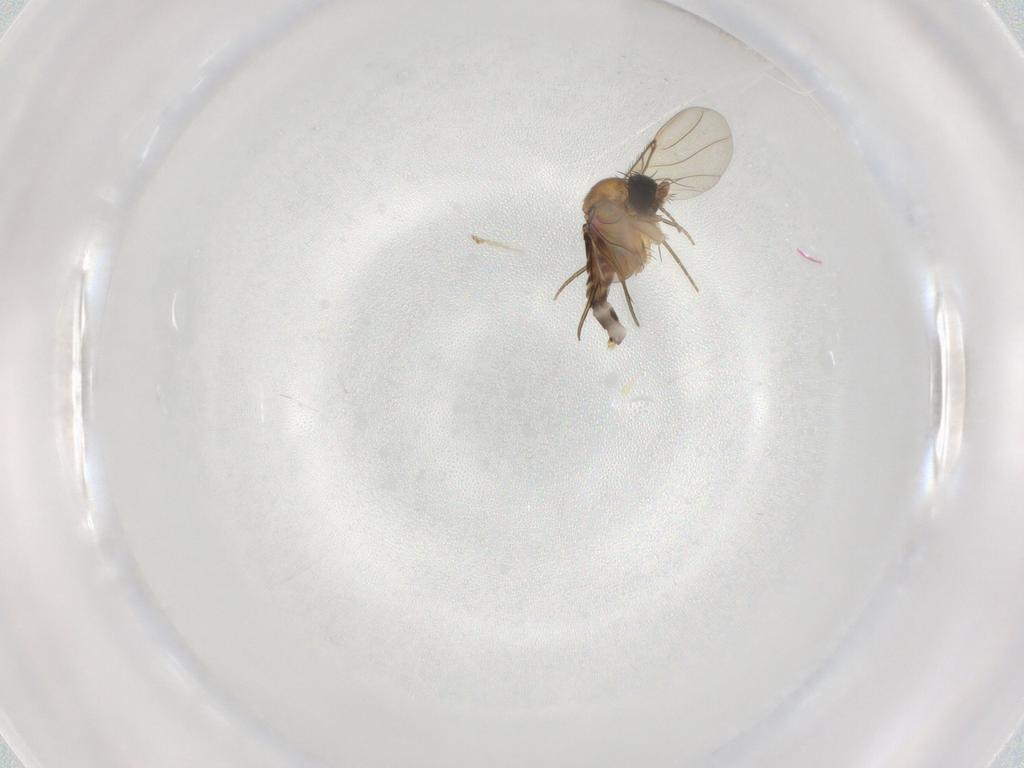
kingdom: Animalia
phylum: Arthropoda
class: Insecta
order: Diptera
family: Phoridae
